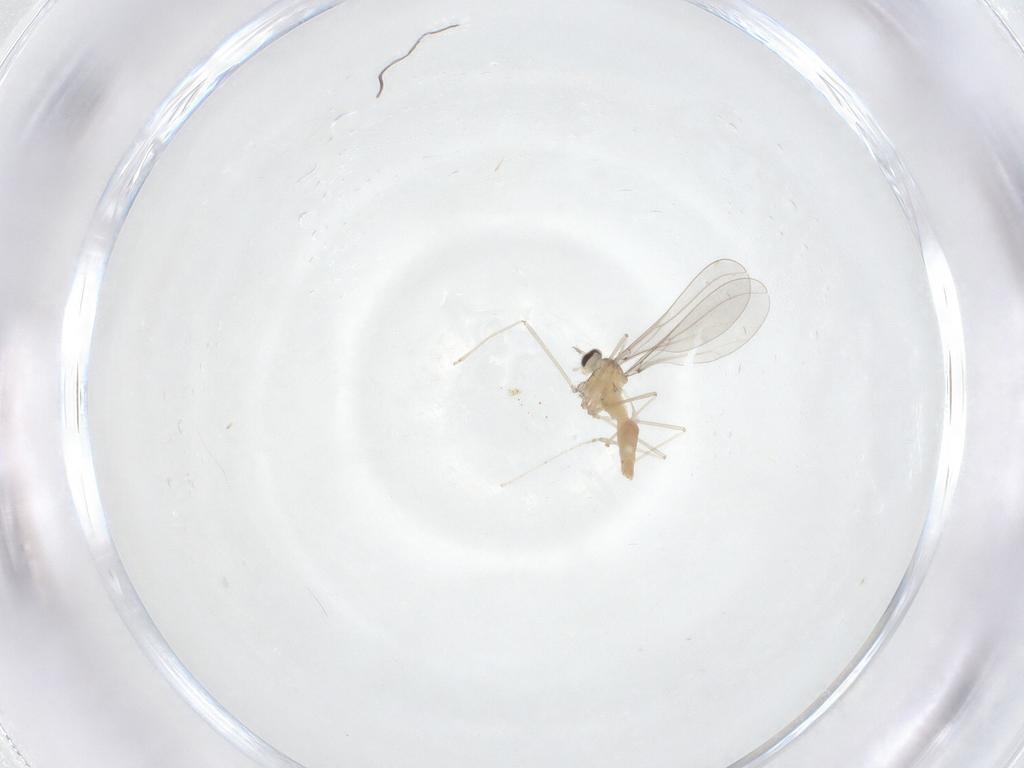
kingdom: Animalia
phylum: Arthropoda
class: Insecta
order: Diptera
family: Cecidomyiidae
